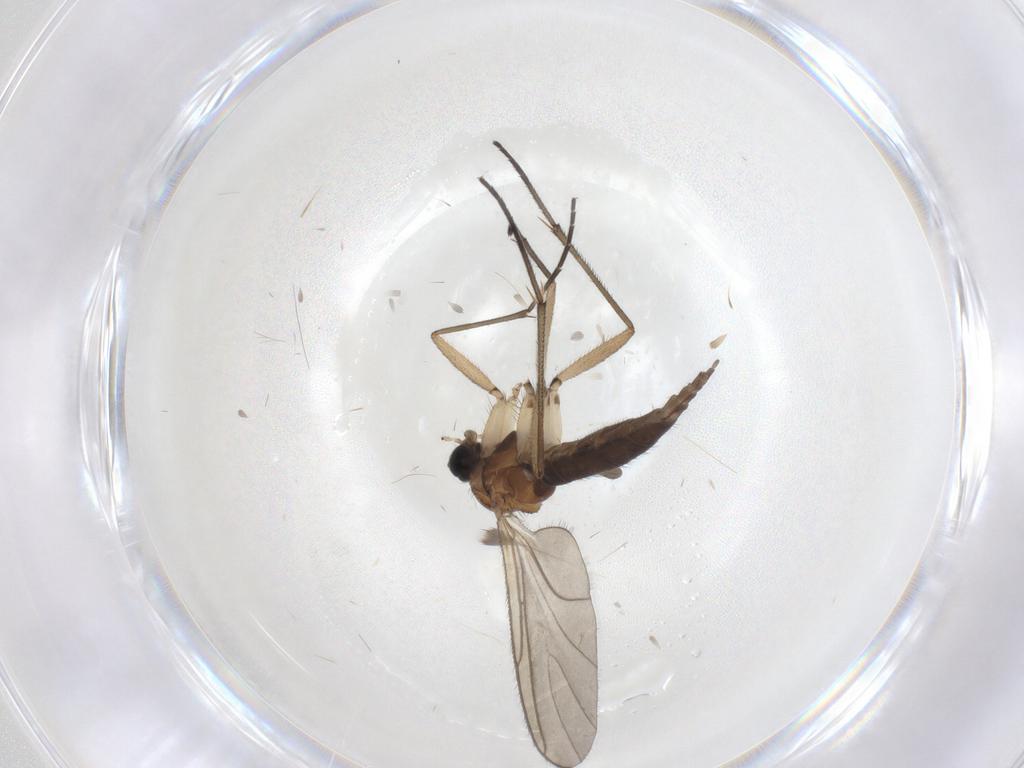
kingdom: Animalia
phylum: Arthropoda
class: Insecta
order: Diptera
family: Sciaridae
